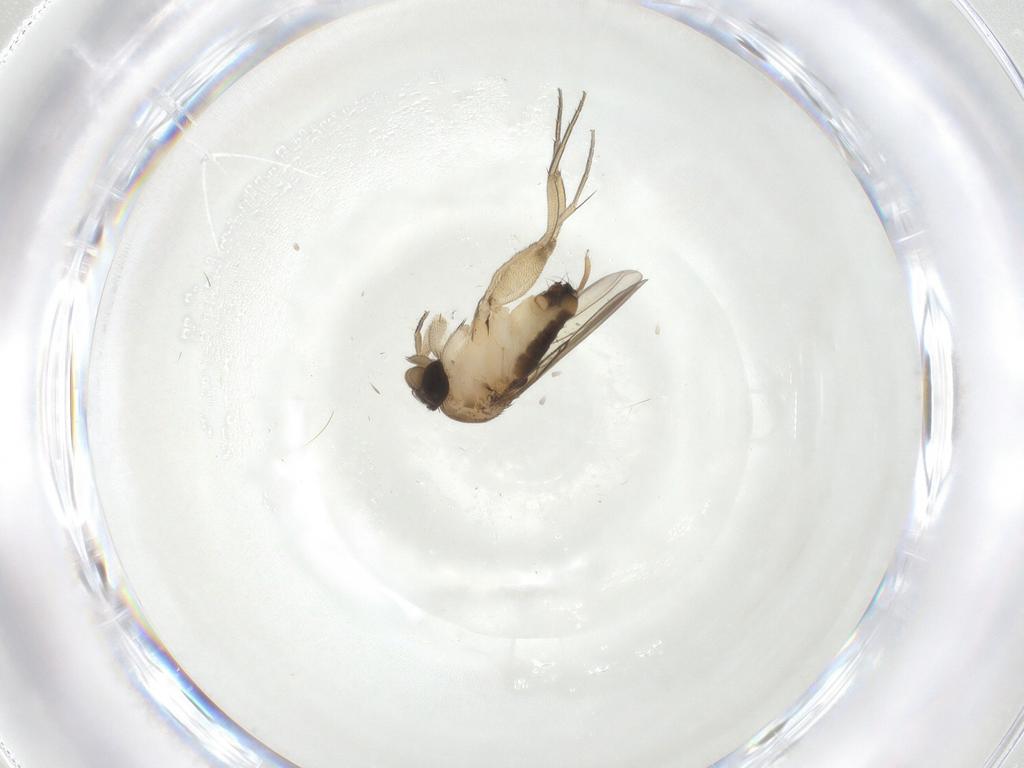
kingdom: Animalia
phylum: Arthropoda
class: Insecta
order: Diptera
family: Phoridae
